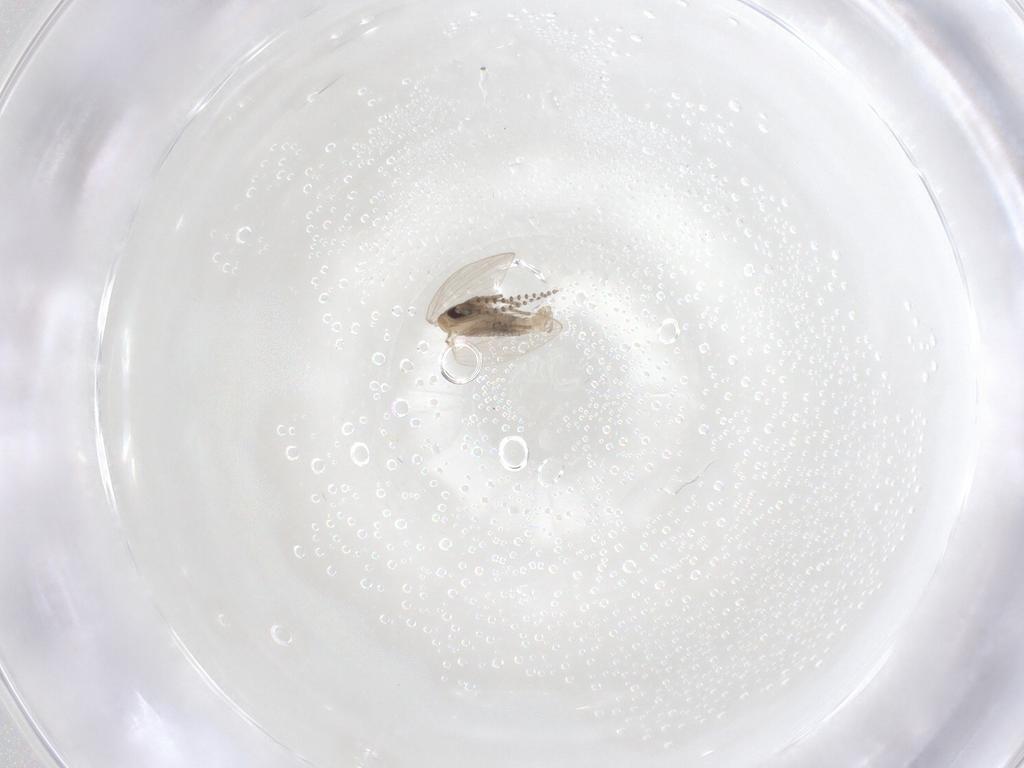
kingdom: Animalia
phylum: Arthropoda
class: Insecta
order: Diptera
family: Psychodidae
